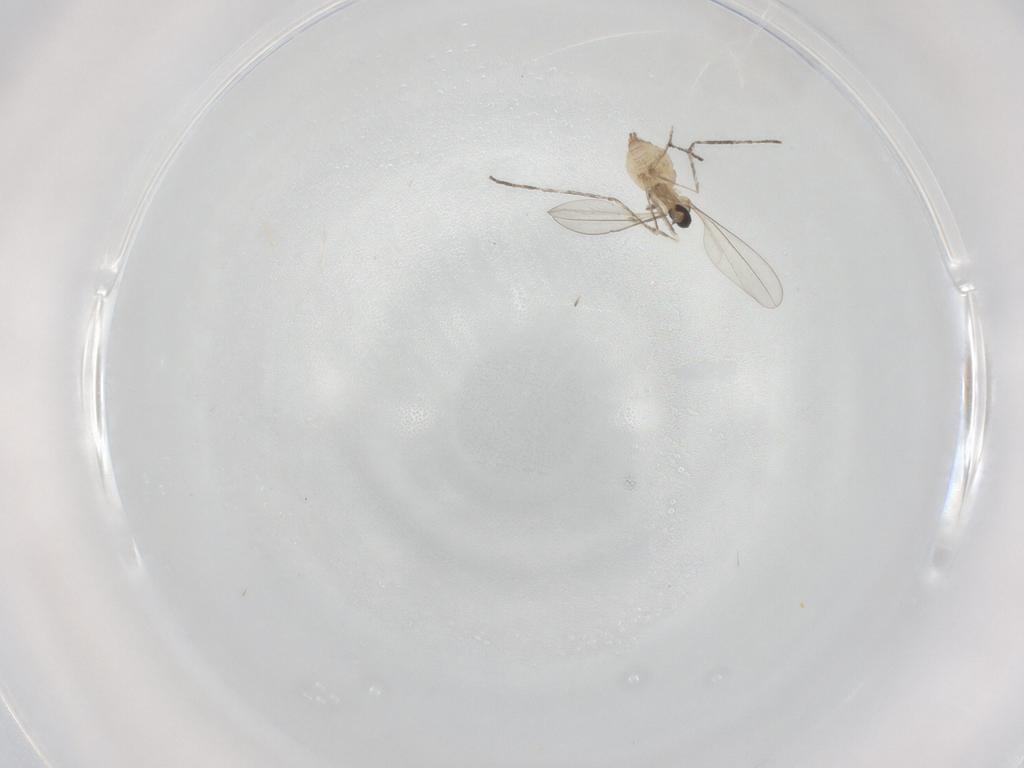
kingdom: Animalia
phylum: Arthropoda
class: Insecta
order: Diptera
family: Cecidomyiidae
